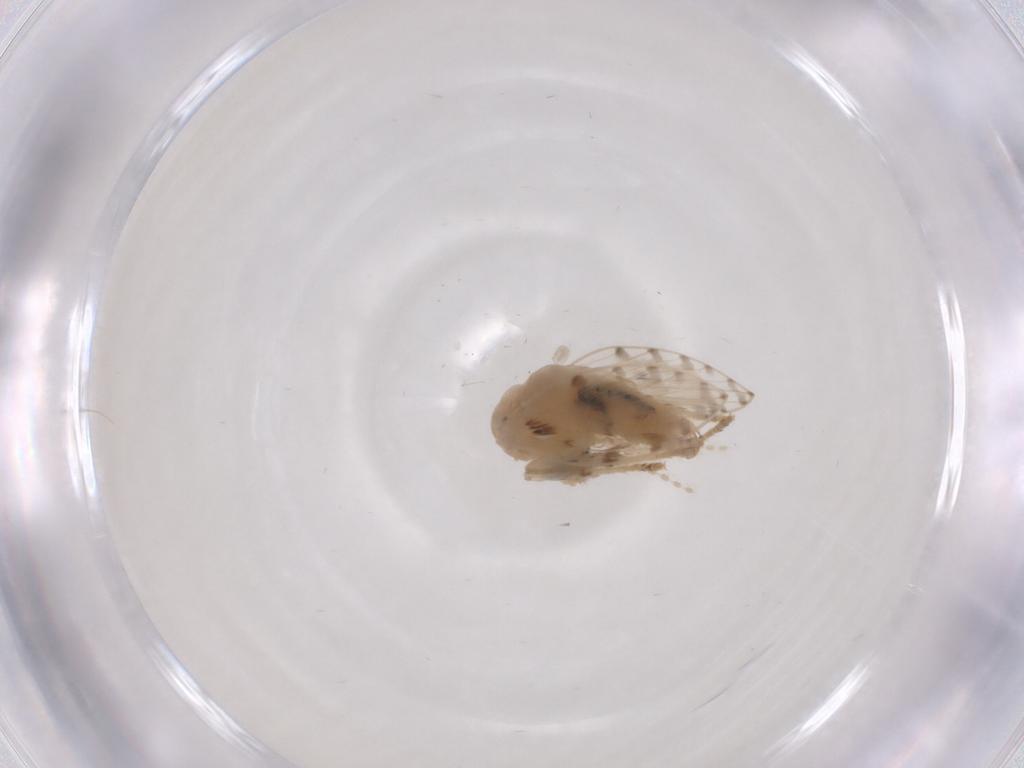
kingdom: Animalia
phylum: Arthropoda
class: Insecta
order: Diptera
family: Psychodidae
